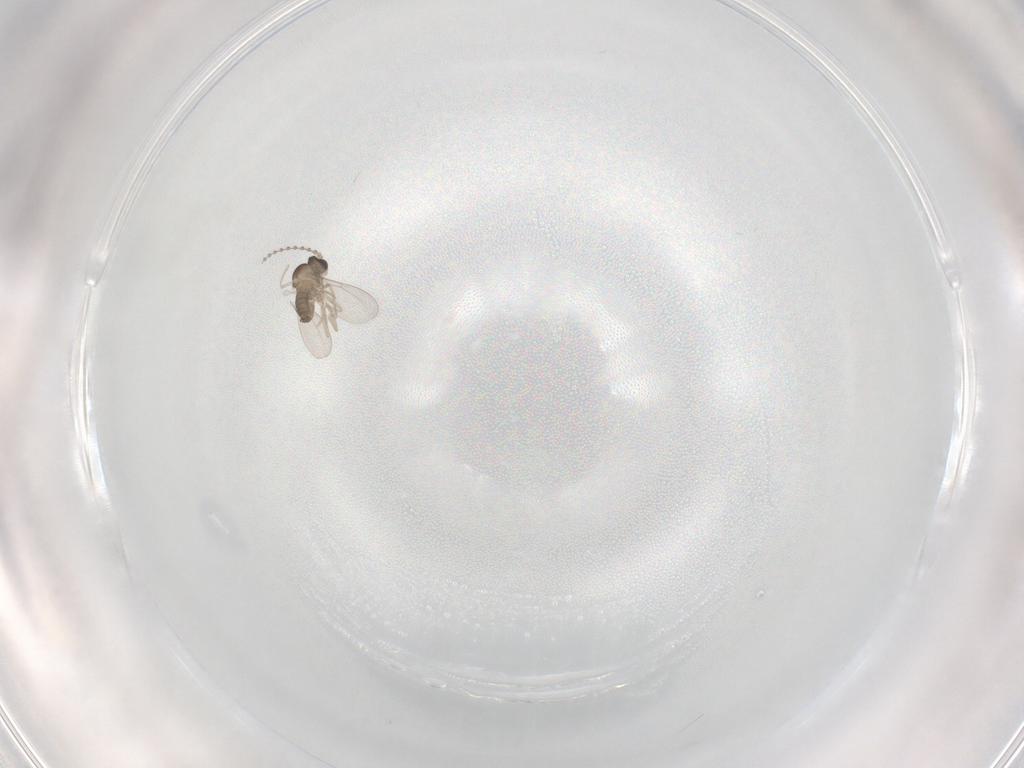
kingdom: Animalia
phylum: Arthropoda
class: Insecta
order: Diptera
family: Cecidomyiidae
